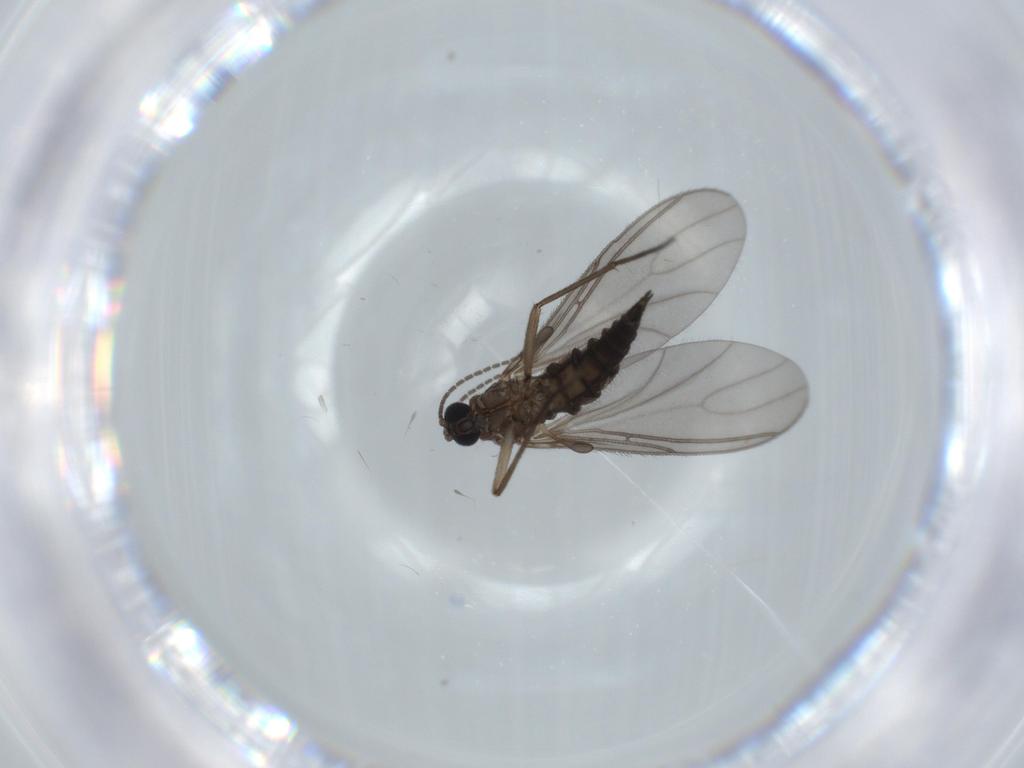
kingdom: Animalia
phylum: Arthropoda
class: Insecta
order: Diptera
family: Sciaridae
